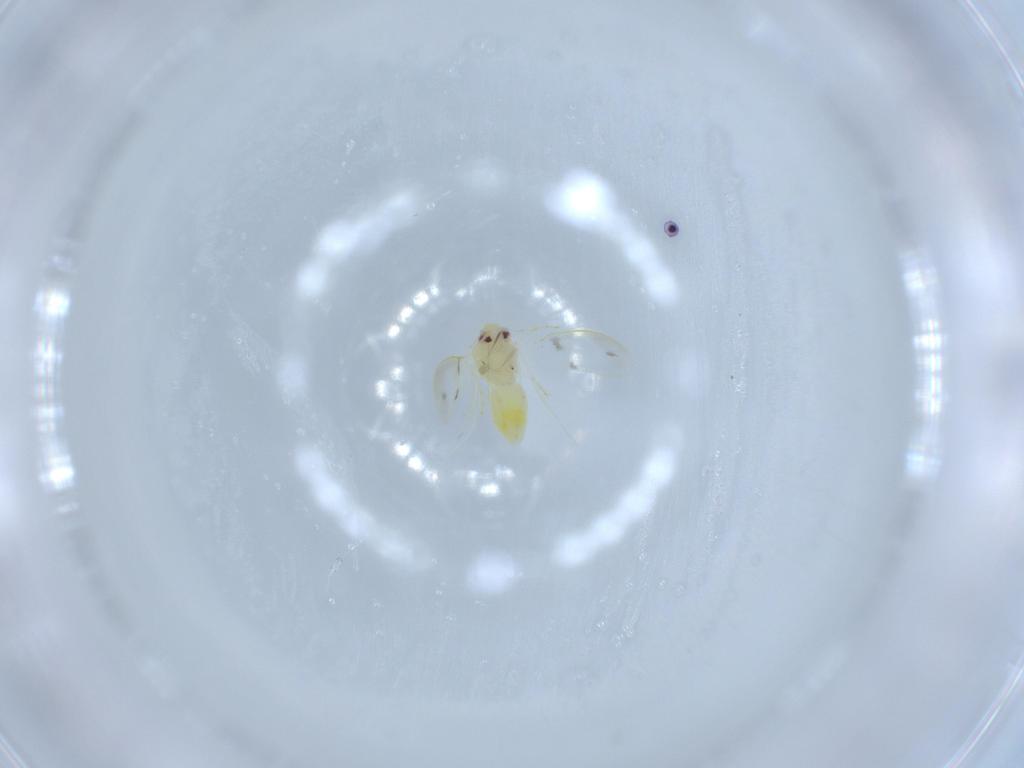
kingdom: Animalia
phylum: Arthropoda
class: Insecta
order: Hemiptera
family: Aleyrodidae
